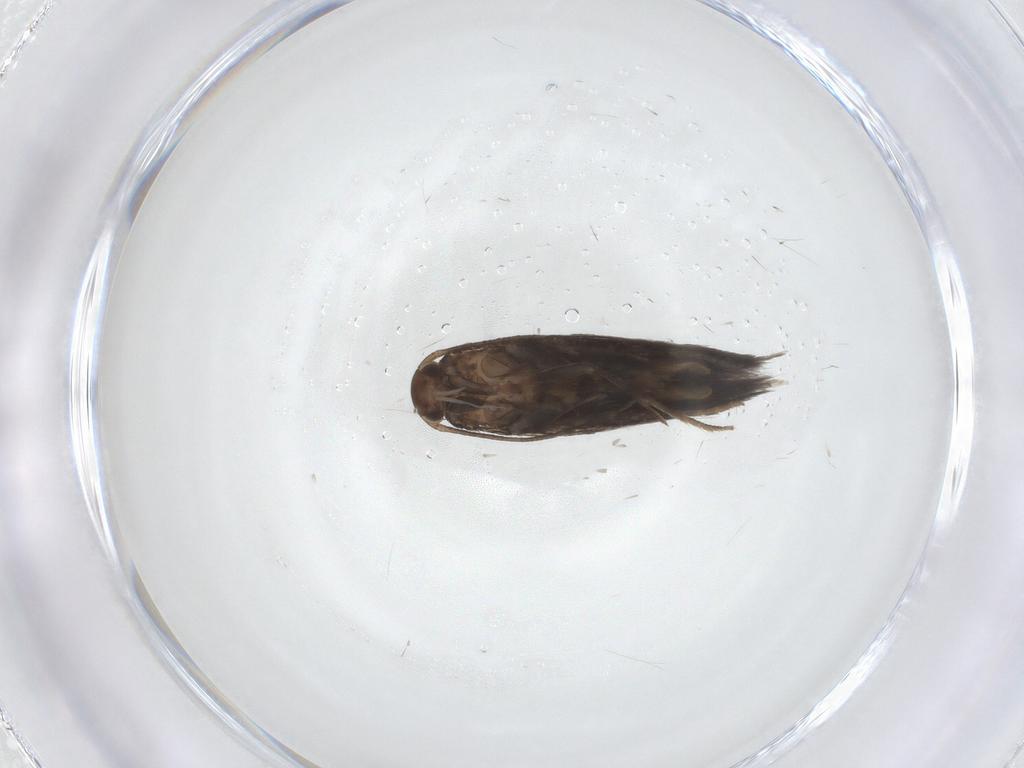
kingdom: Animalia
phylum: Arthropoda
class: Insecta
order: Lepidoptera
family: Elachistidae
